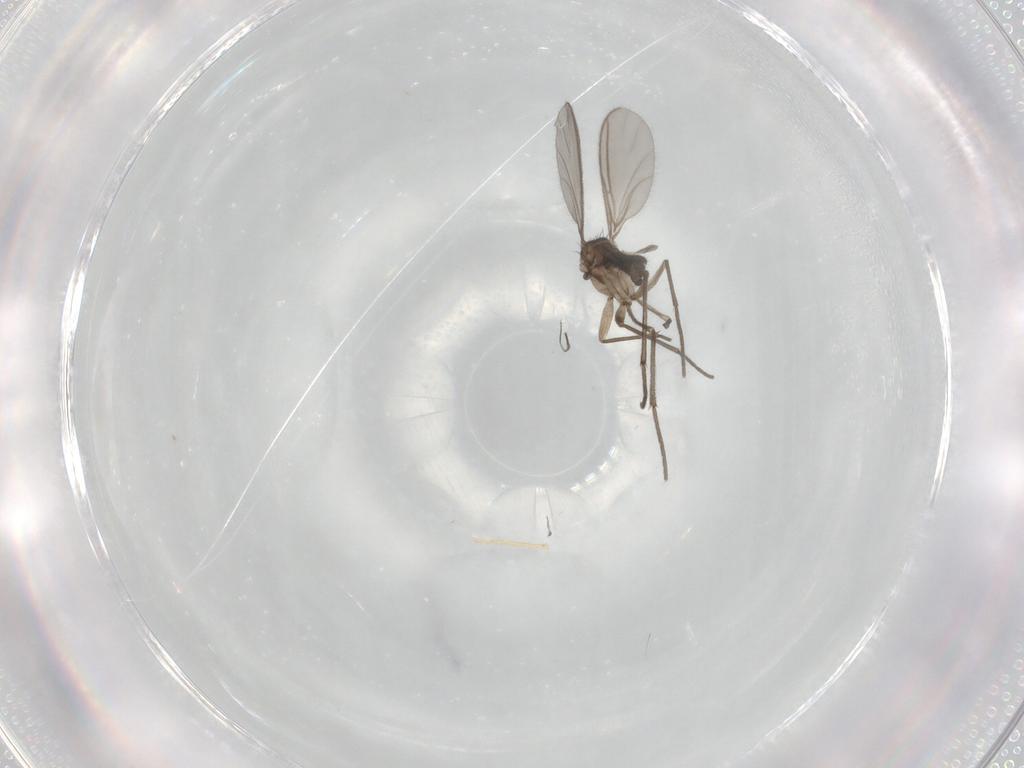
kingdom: Animalia
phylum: Arthropoda
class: Insecta
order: Diptera
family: Sciaridae
